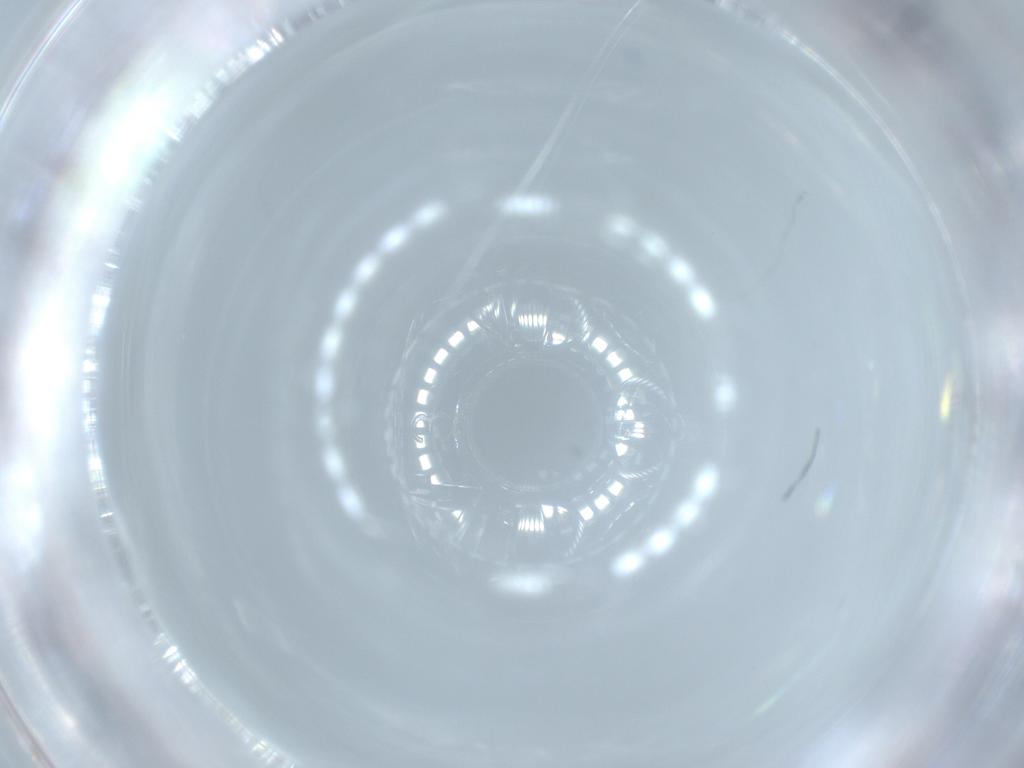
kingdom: Animalia
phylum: Arthropoda
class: Insecta
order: Diptera
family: Cecidomyiidae
